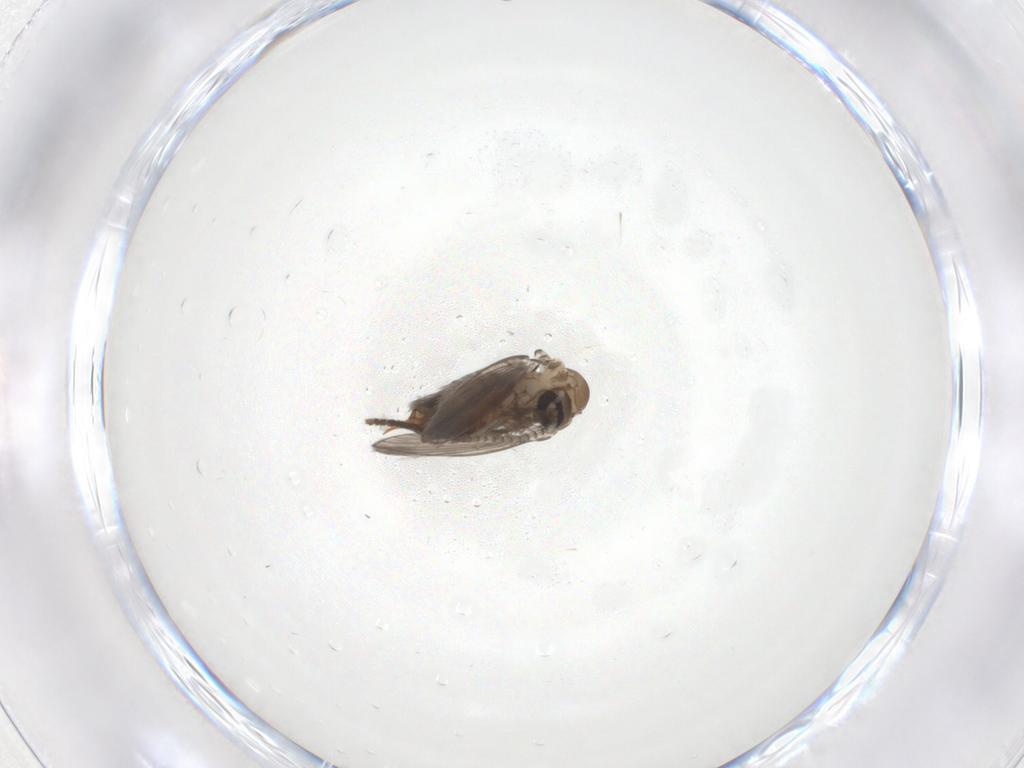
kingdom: Animalia
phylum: Arthropoda
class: Insecta
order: Diptera
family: Psychodidae
